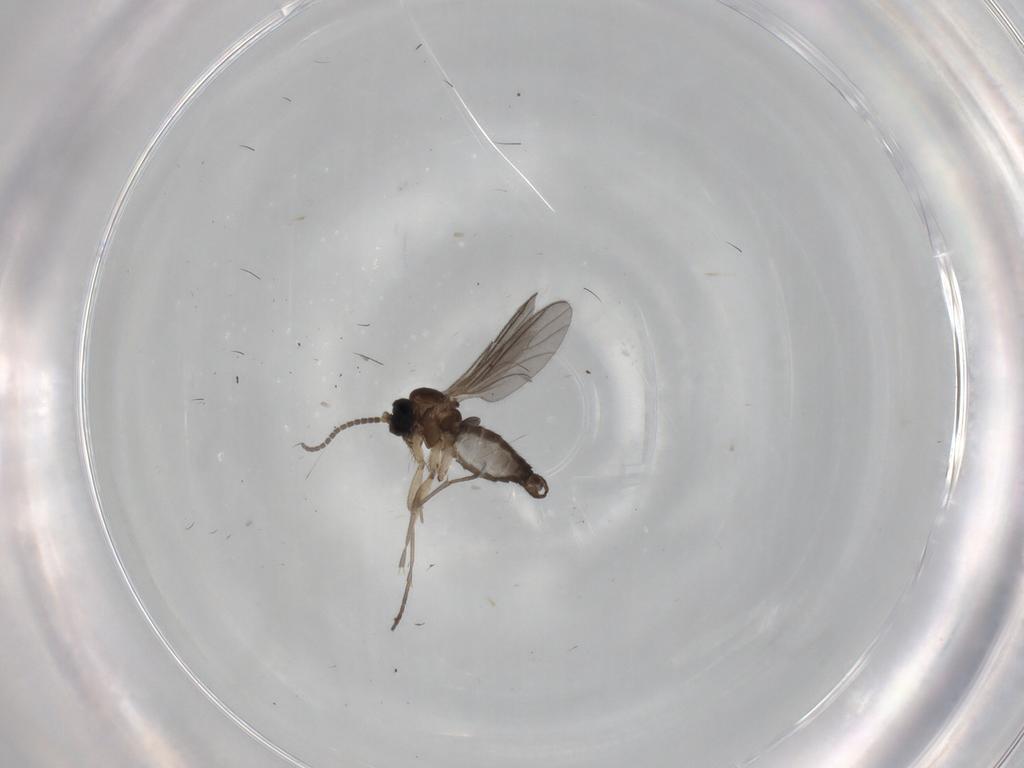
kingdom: Animalia
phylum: Arthropoda
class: Insecta
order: Diptera
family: Sciaridae
